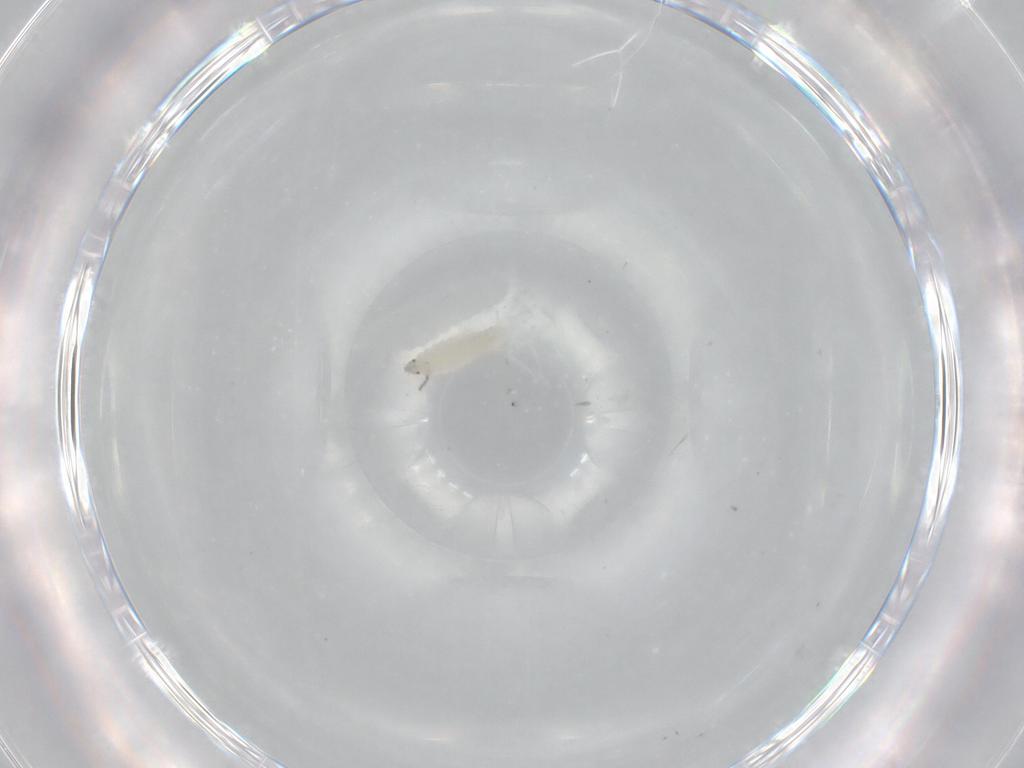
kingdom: Animalia
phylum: Arthropoda
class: Insecta
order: Diptera
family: Chironomidae
